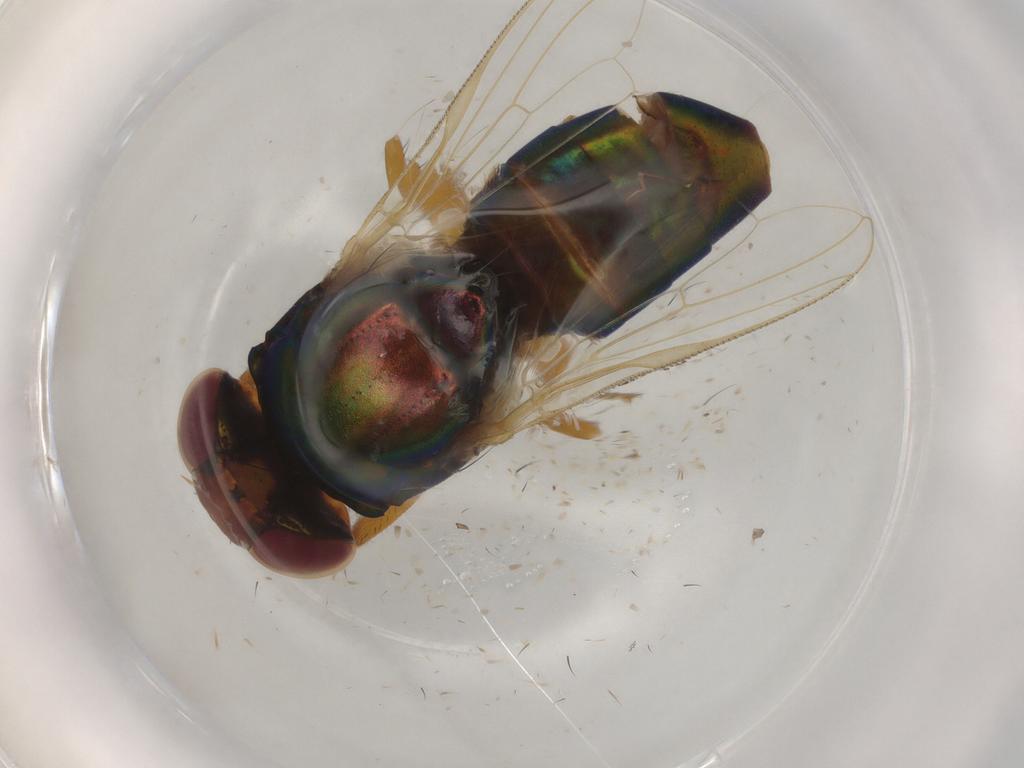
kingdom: Animalia
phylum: Arthropoda
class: Insecta
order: Diptera
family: Ulidiidae
